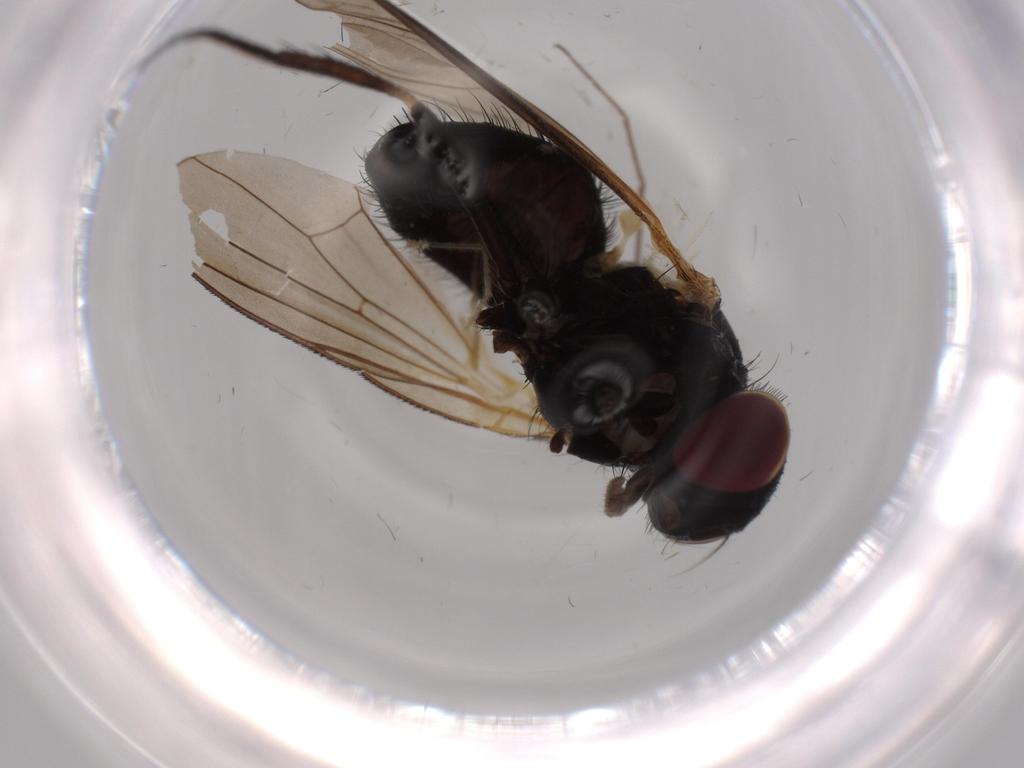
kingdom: Animalia
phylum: Arthropoda
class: Insecta
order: Diptera
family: Fannia
